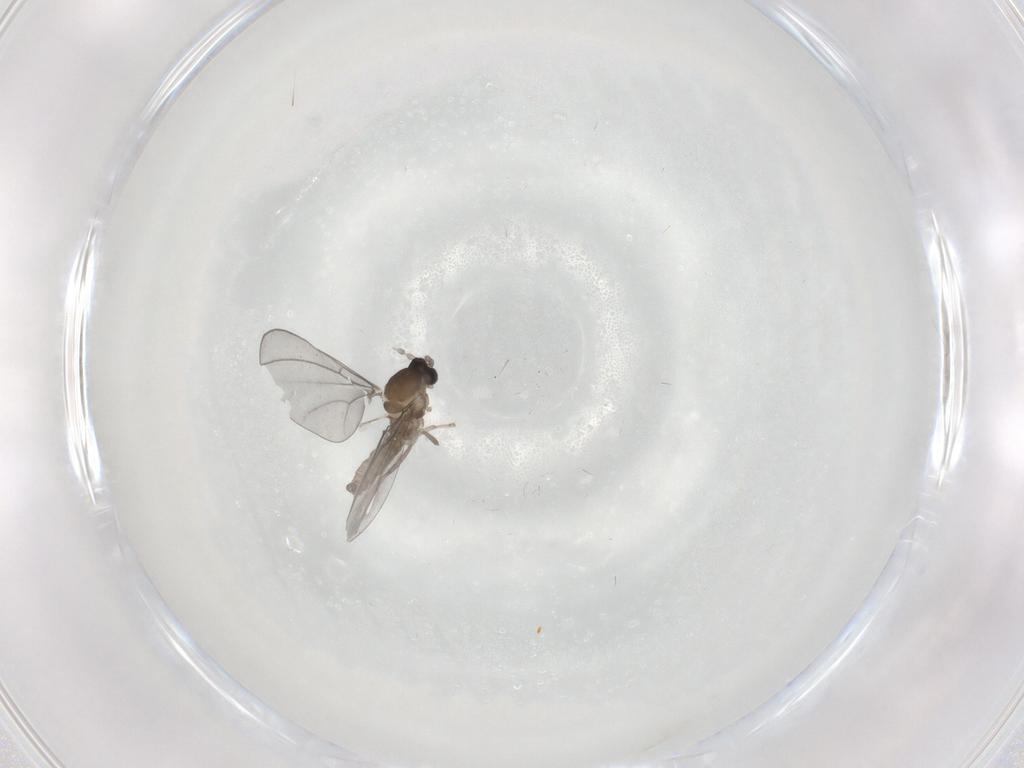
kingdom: Animalia
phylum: Arthropoda
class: Insecta
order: Diptera
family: Cecidomyiidae
